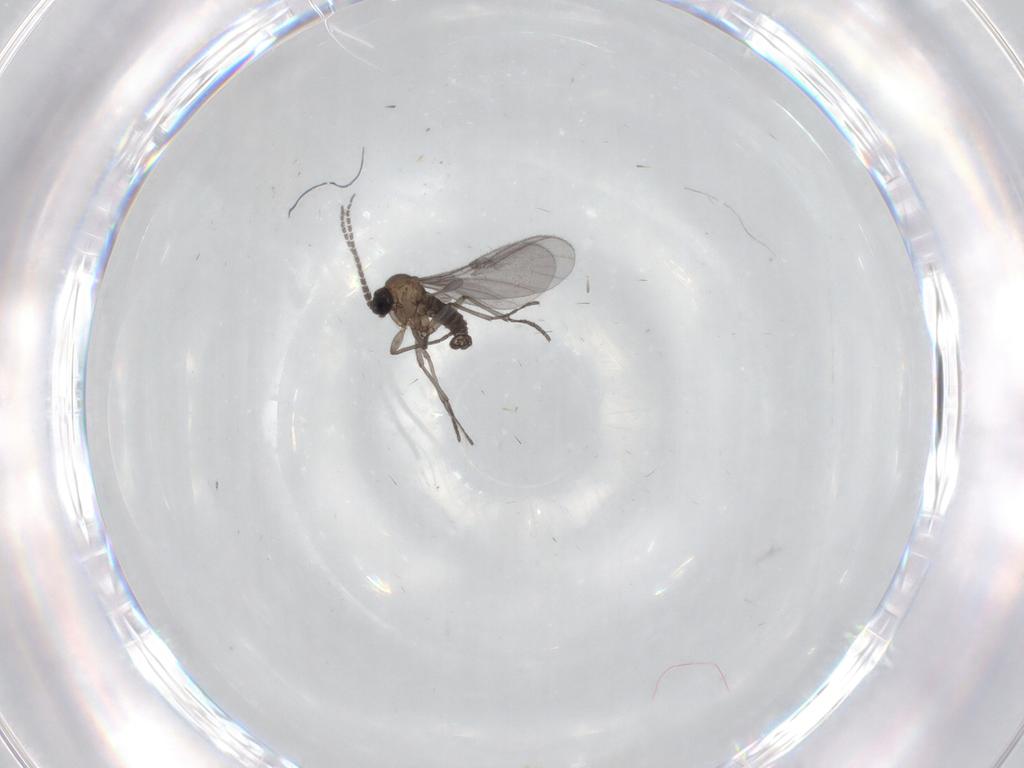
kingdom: Animalia
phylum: Arthropoda
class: Insecta
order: Diptera
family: Sciaridae
